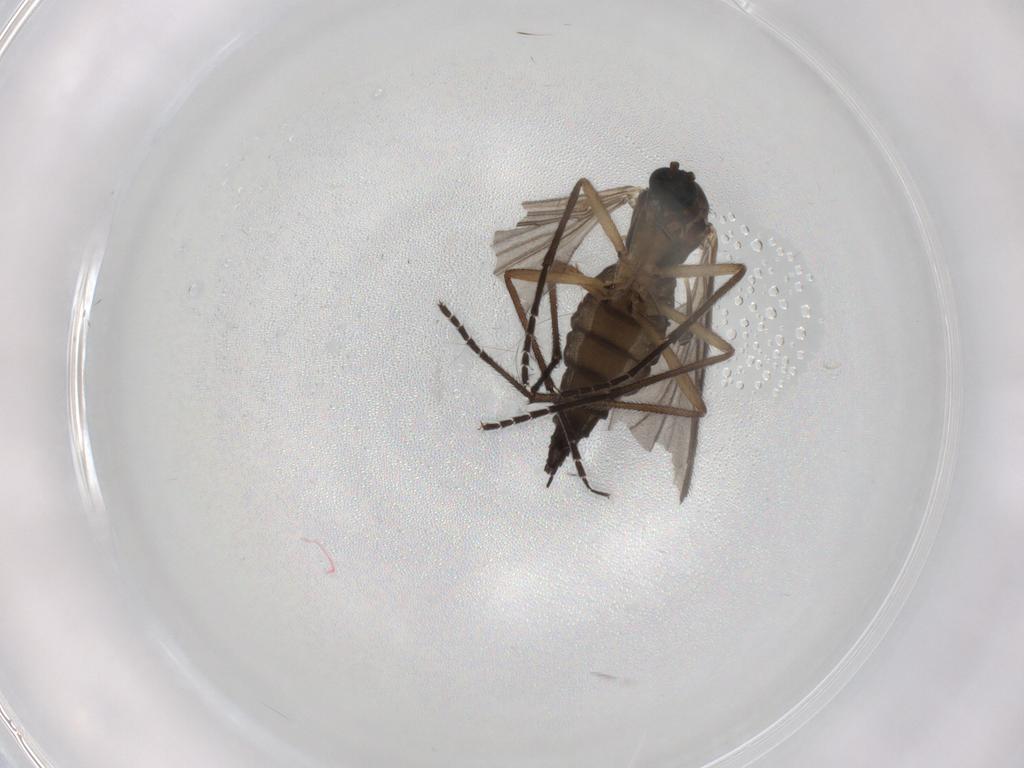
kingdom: Animalia
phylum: Arthropoda
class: Insecta
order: Diptera
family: Sciaridae
